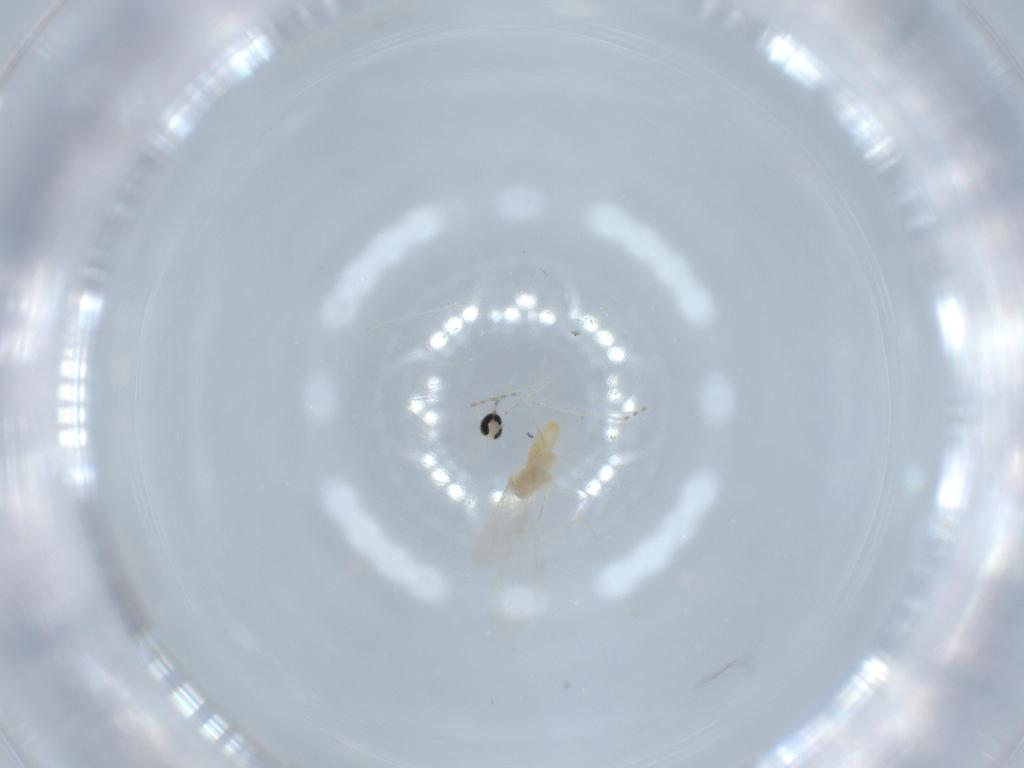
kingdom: Animalia
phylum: Arthropoda
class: Insecta
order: Diptera
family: Cecidomyiidae
